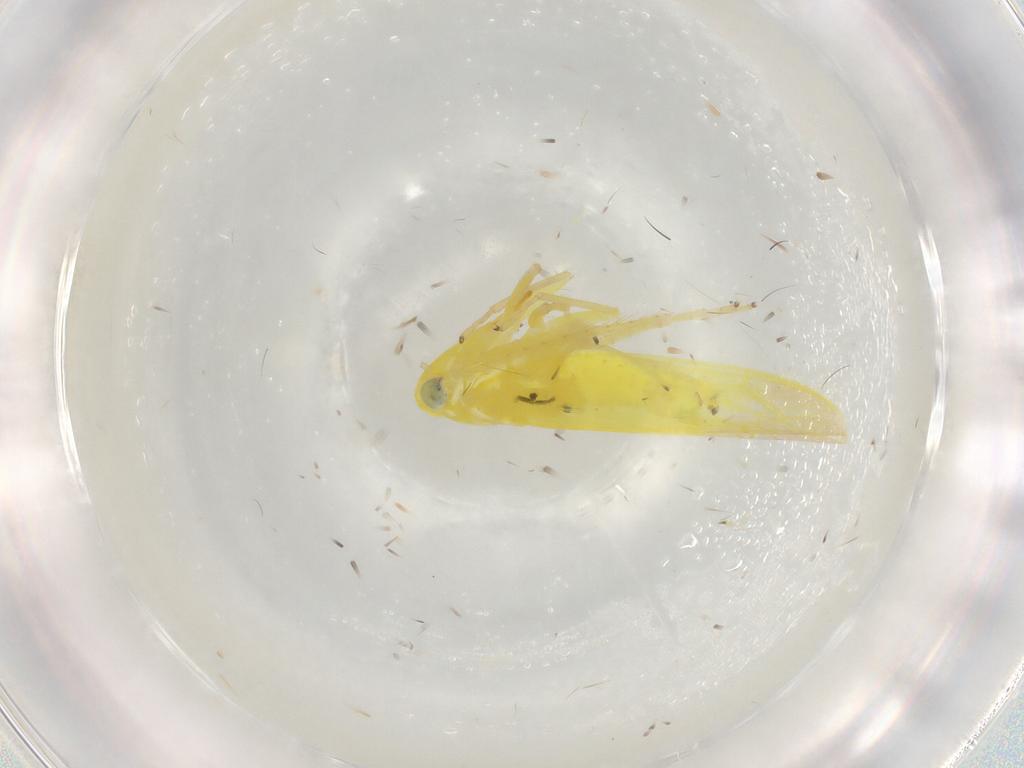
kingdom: Animalia
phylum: Arthropoda
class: Insecta
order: Hemiptera
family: Cicadellidae
